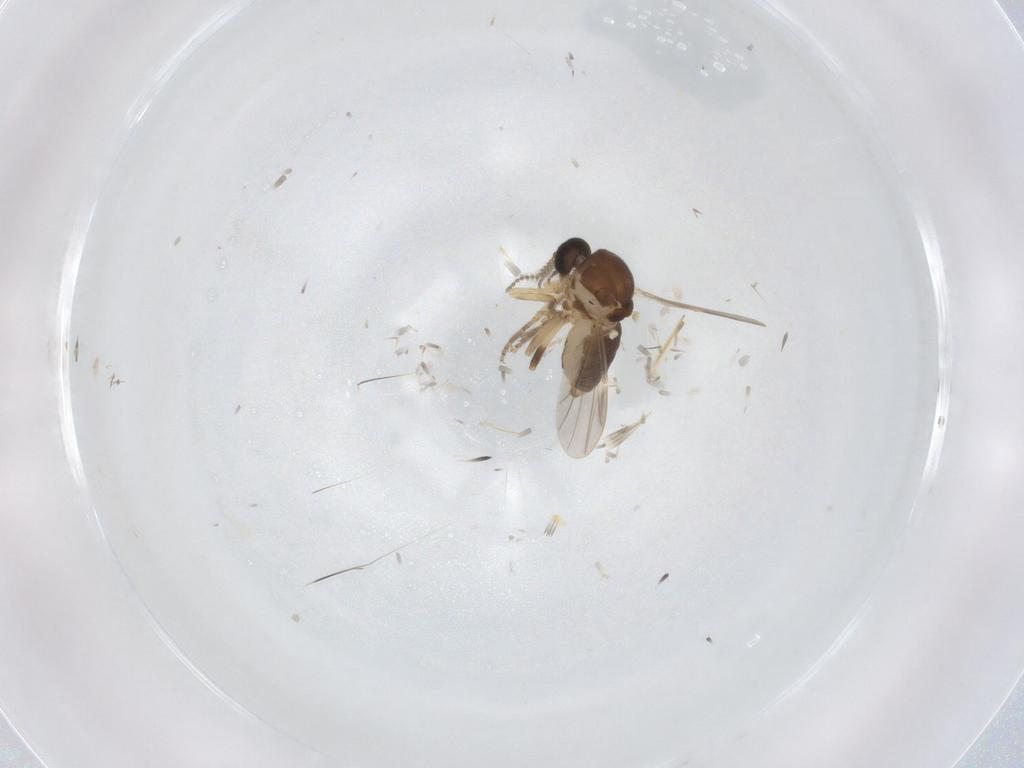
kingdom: Animalia
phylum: Arthropoda
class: Insecta
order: Diptera
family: Ceratopogonidae
